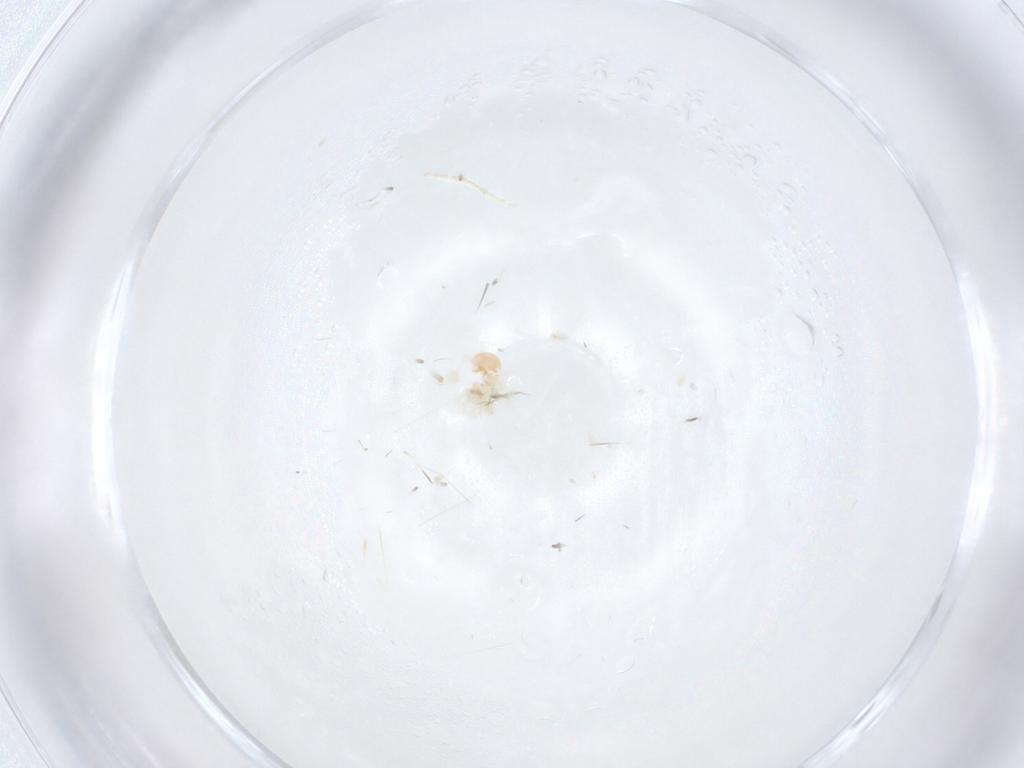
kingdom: Animalia
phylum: Arthropoda
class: Arachnida
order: Trombidiformes
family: Anystidae
